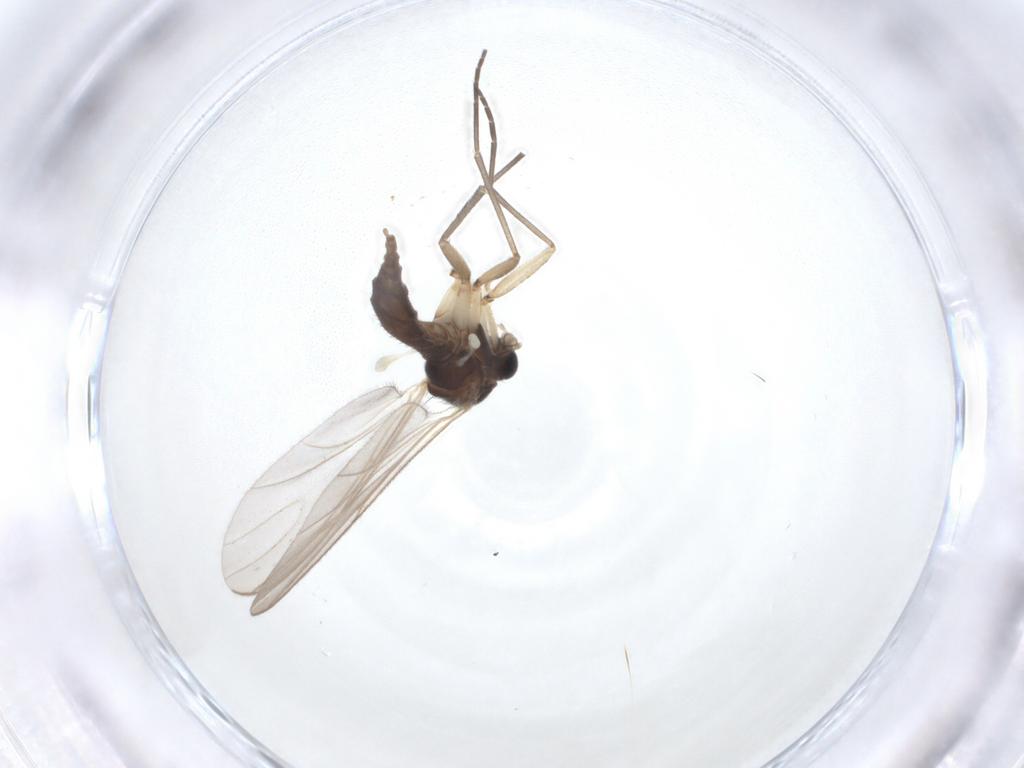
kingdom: Animalia
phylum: Arthropoda
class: Insecta
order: Diptera
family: Sciaridae
